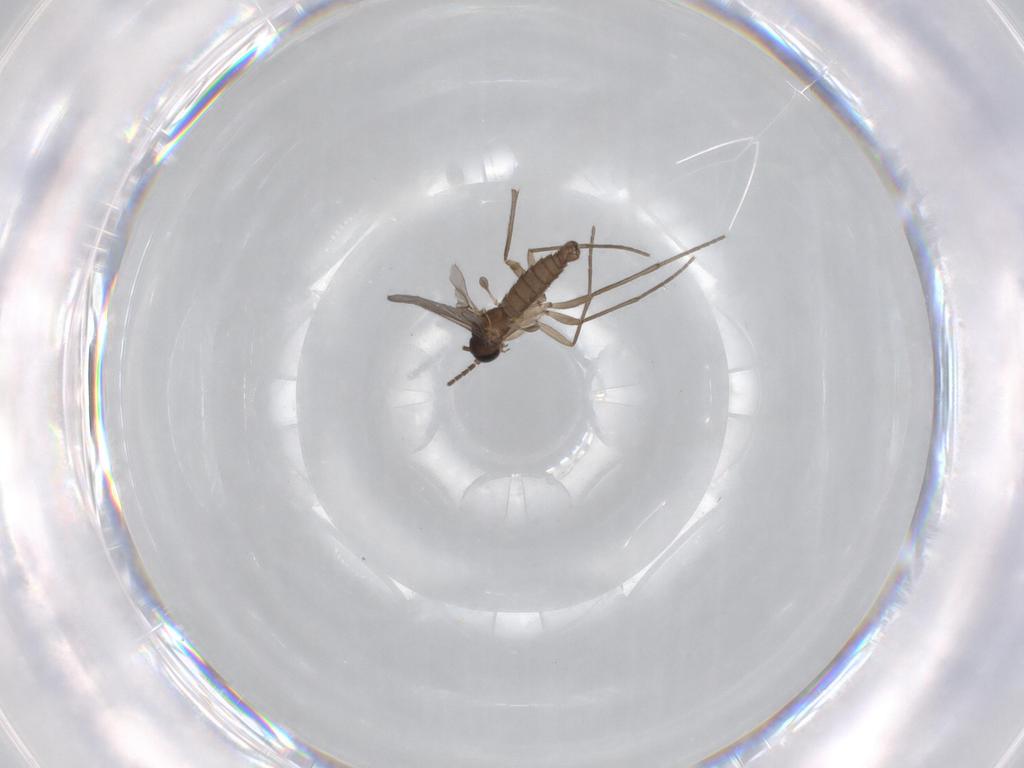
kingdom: Animalia
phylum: Arthropoda
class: Insecta
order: Diptera
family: Sciaridae
